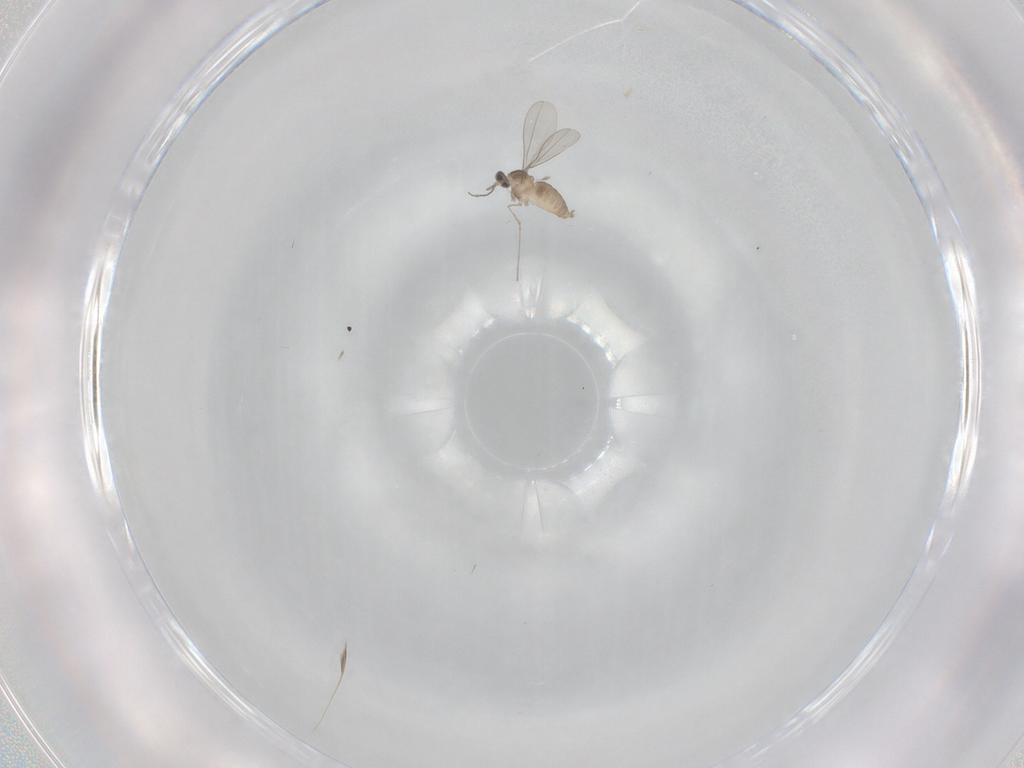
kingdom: Animalia
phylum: Arthropoda
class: Insecta
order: Diptera
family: Cecidomyiidae
